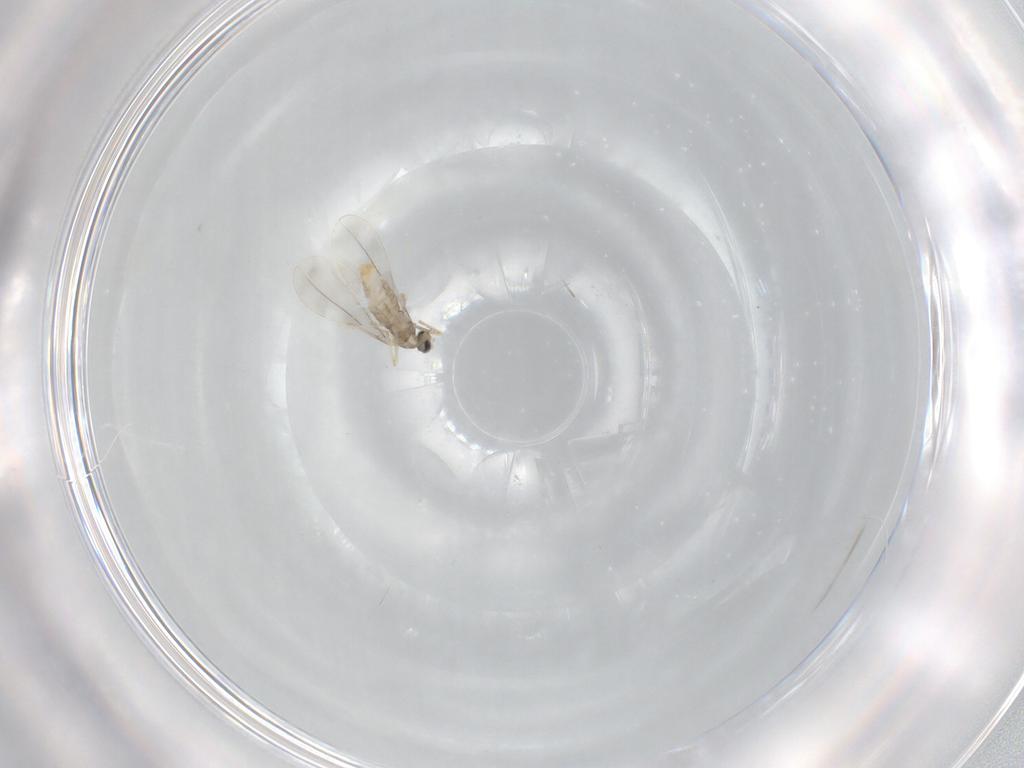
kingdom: Animalia
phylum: Arthropoda
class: Insecta
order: Diptera
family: Cecidomyiidae
